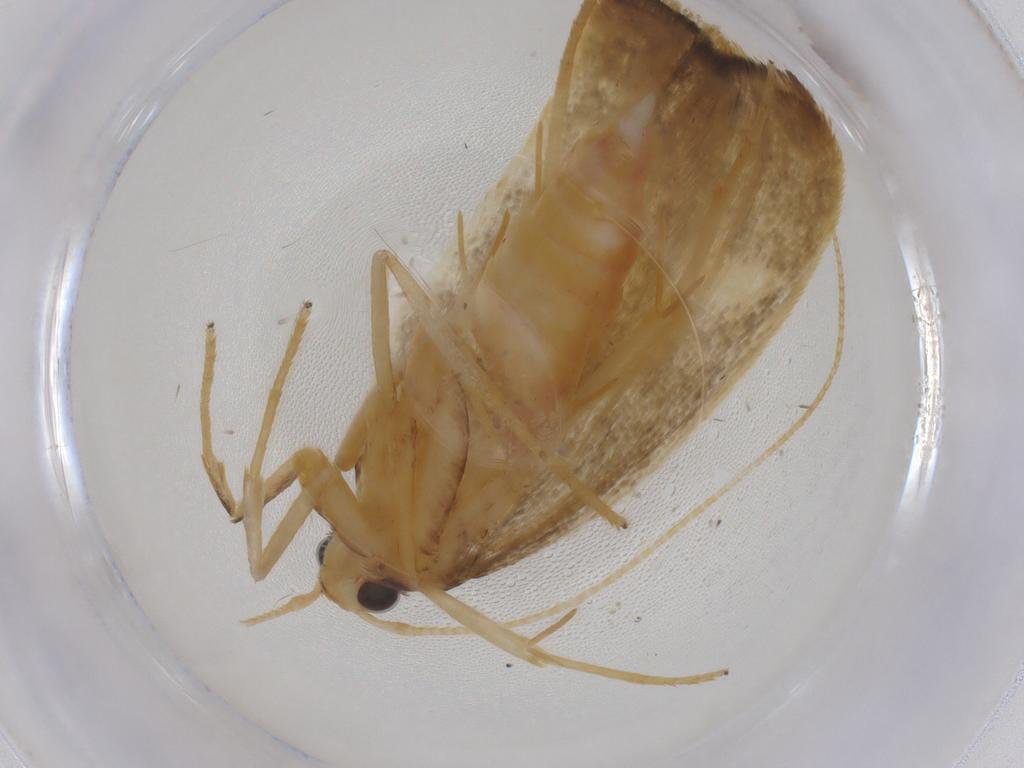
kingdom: Animalia
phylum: Arthropoda
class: Insecta
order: Lepidoptera
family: Lecithoceridae
